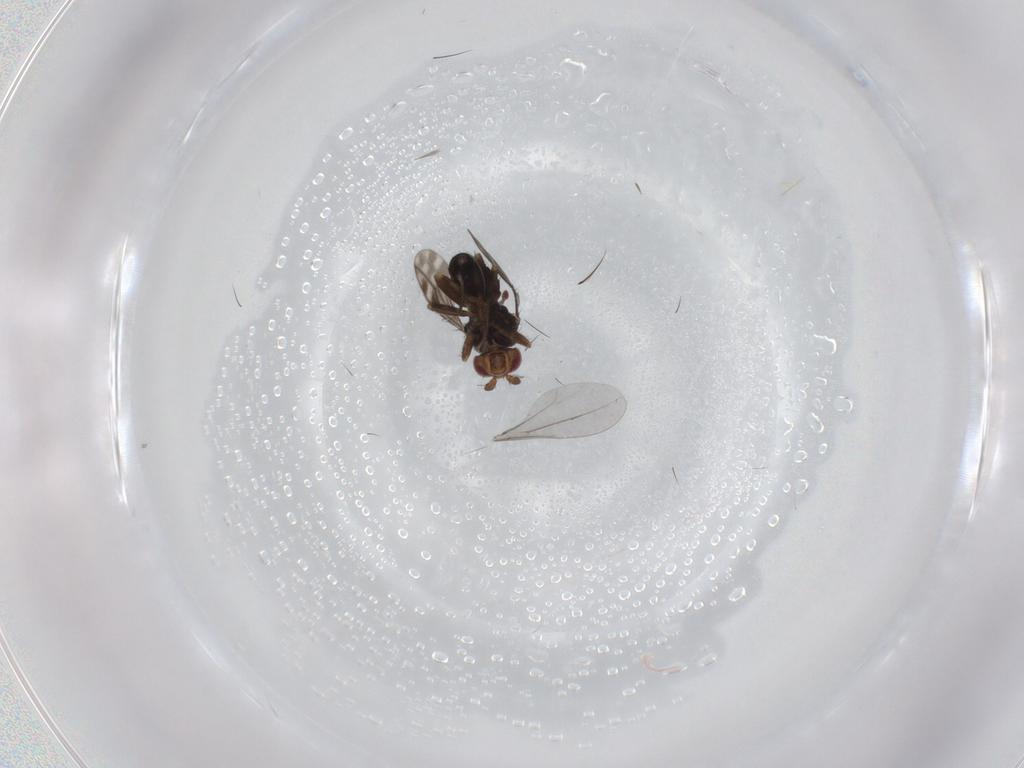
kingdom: Animalia
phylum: Arthropoda
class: Insecta
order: Diptera
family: Sphaeroceridae
